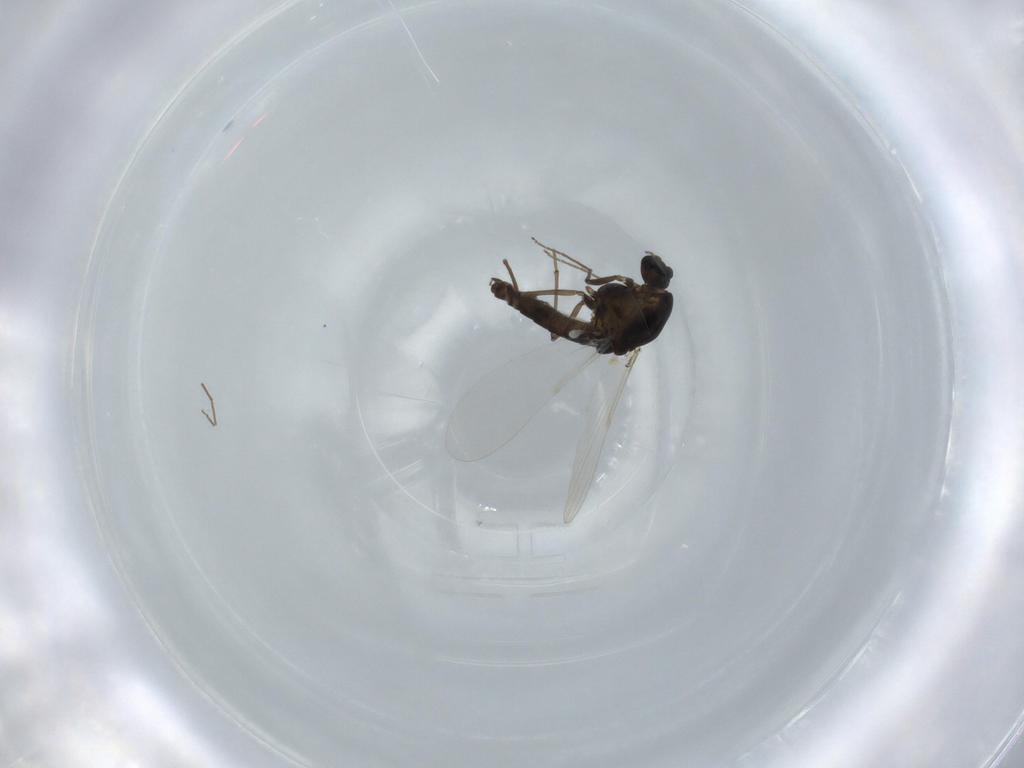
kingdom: Animalia
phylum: Arthropoda
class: Insecta
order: Diptera
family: Chironomidae
